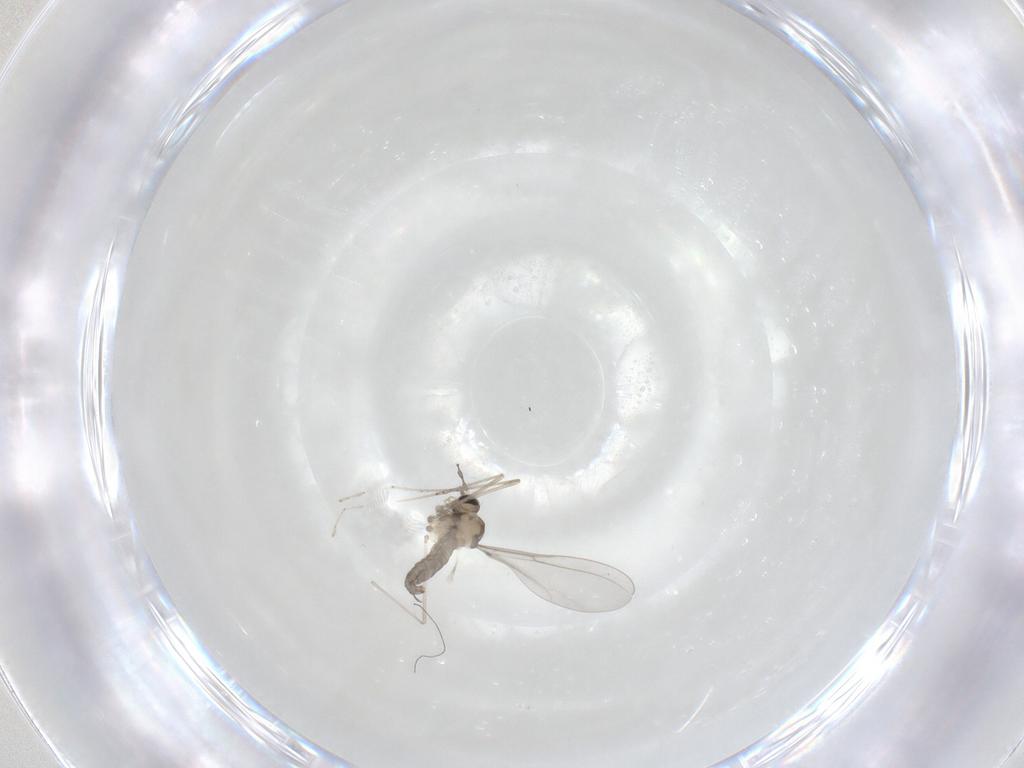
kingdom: Animalia
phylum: Arthropoda
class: Insecta
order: Diptera
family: Cecidomyiidae
